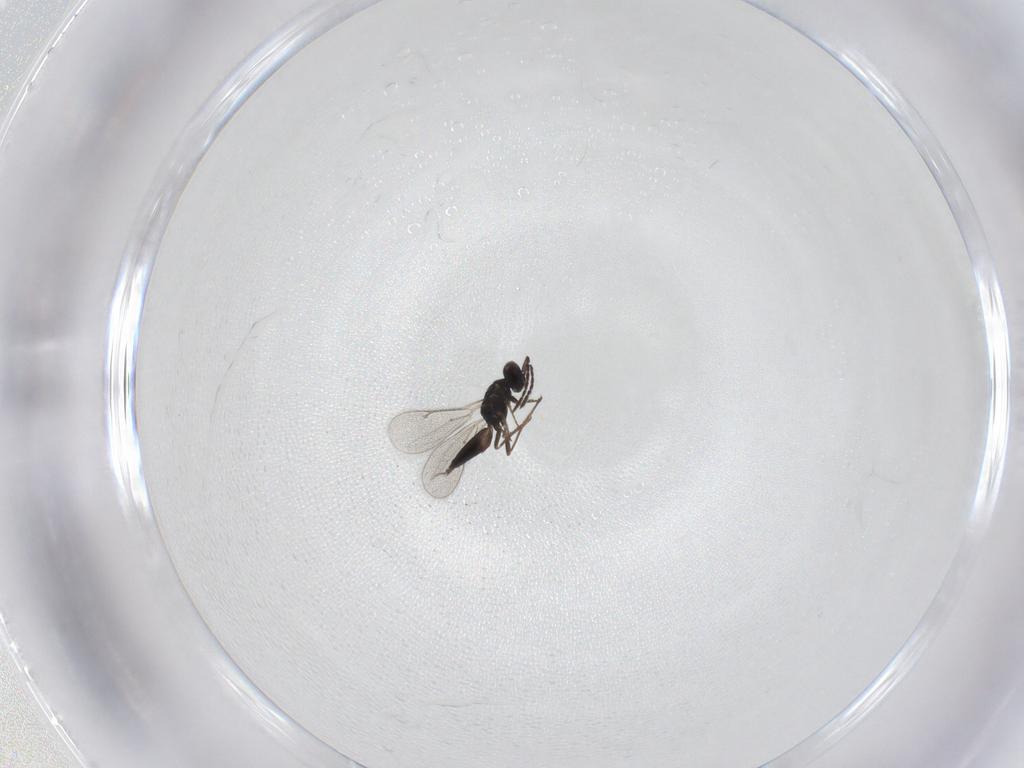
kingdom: Animalia
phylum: Arthropoda
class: Insecta
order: Hymenoptera
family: Eulophidae
